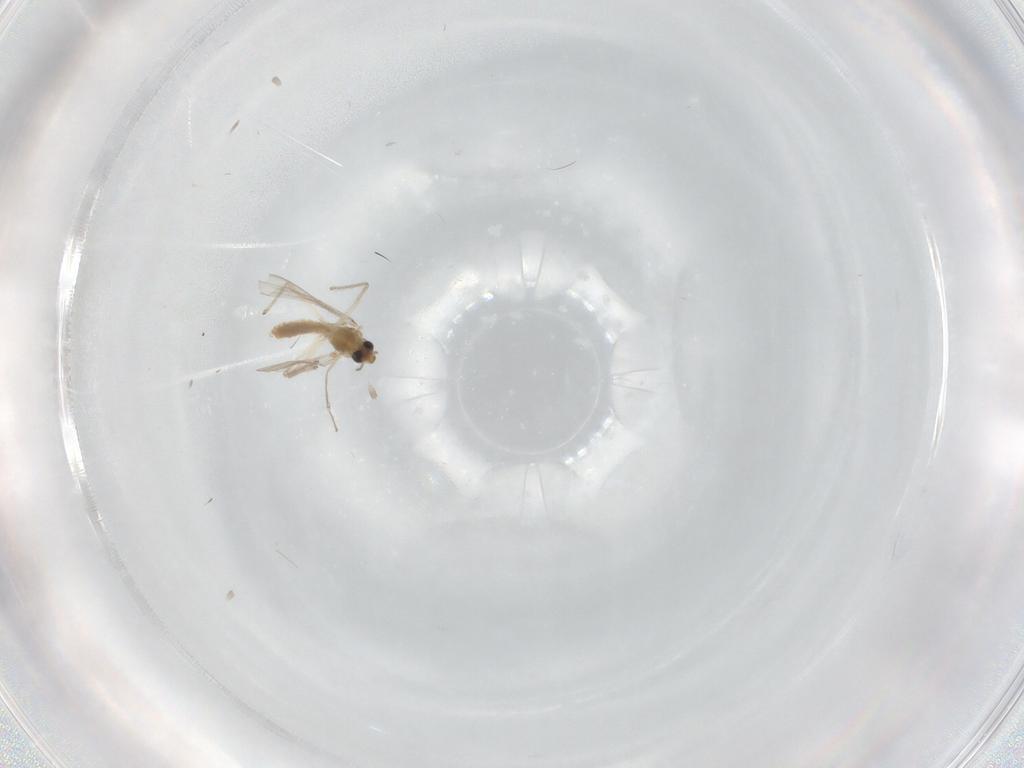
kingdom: Animalia
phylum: Arthropoda
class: Insecta
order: Diptera
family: Chironomidae
